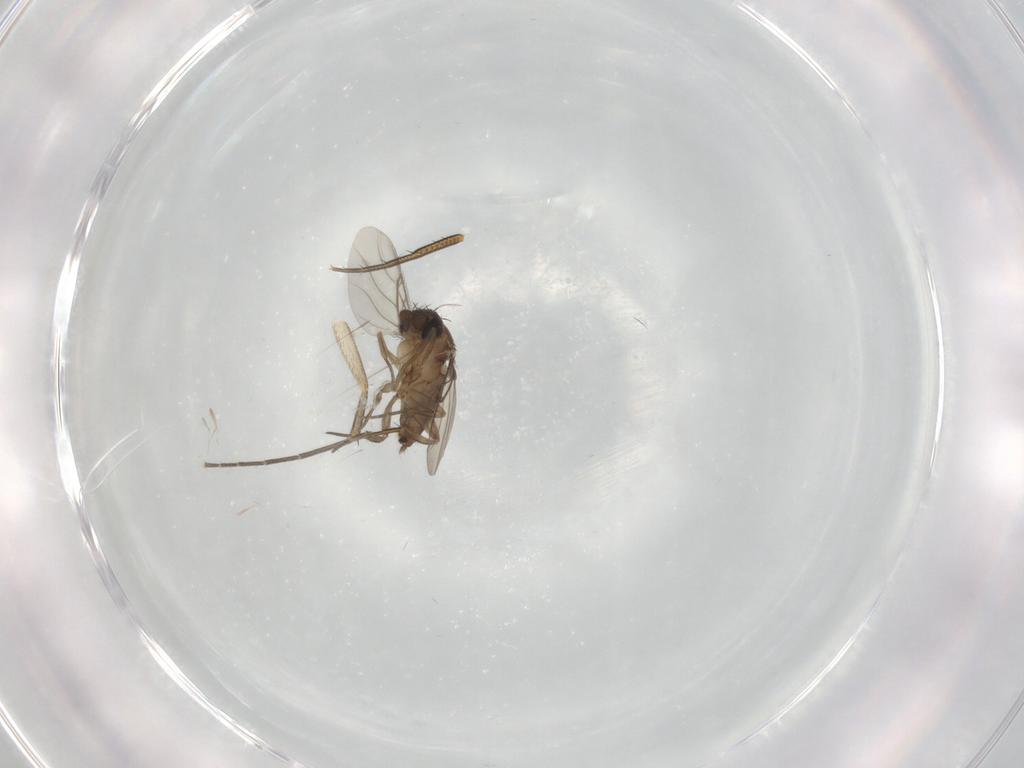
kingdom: Animalia
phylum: Arthropoda
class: Insecta
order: Diptera
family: Phoridae
